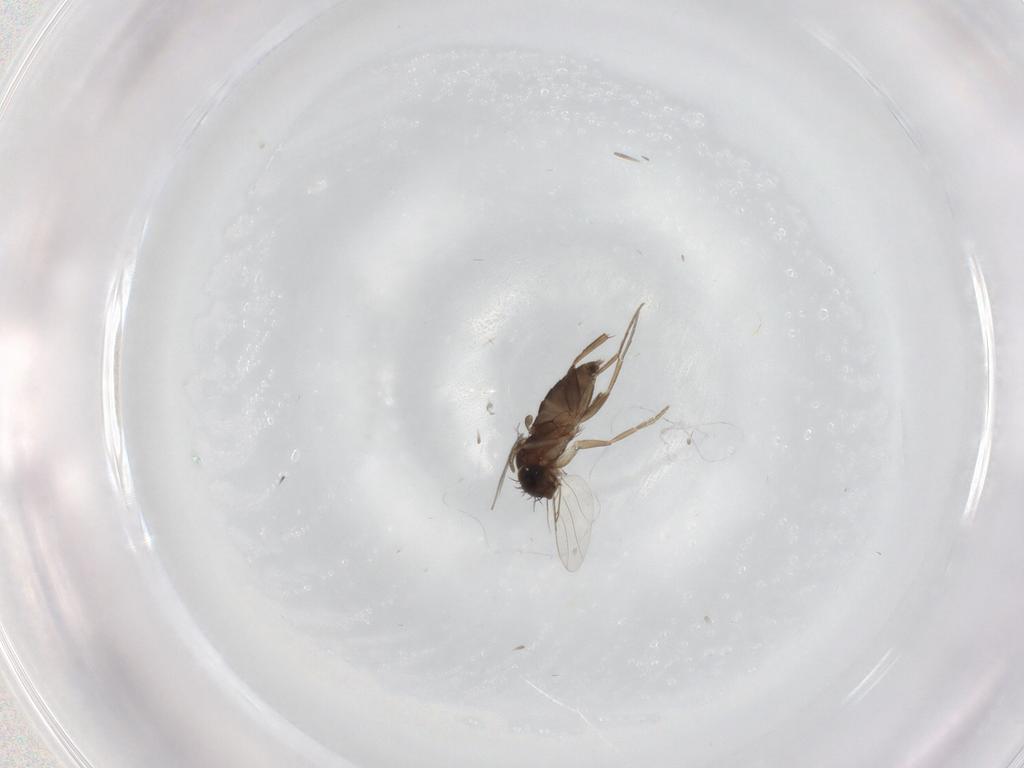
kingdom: Animalia
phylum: Arthropoda
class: Insecta
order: Diptera
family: Phoridae
